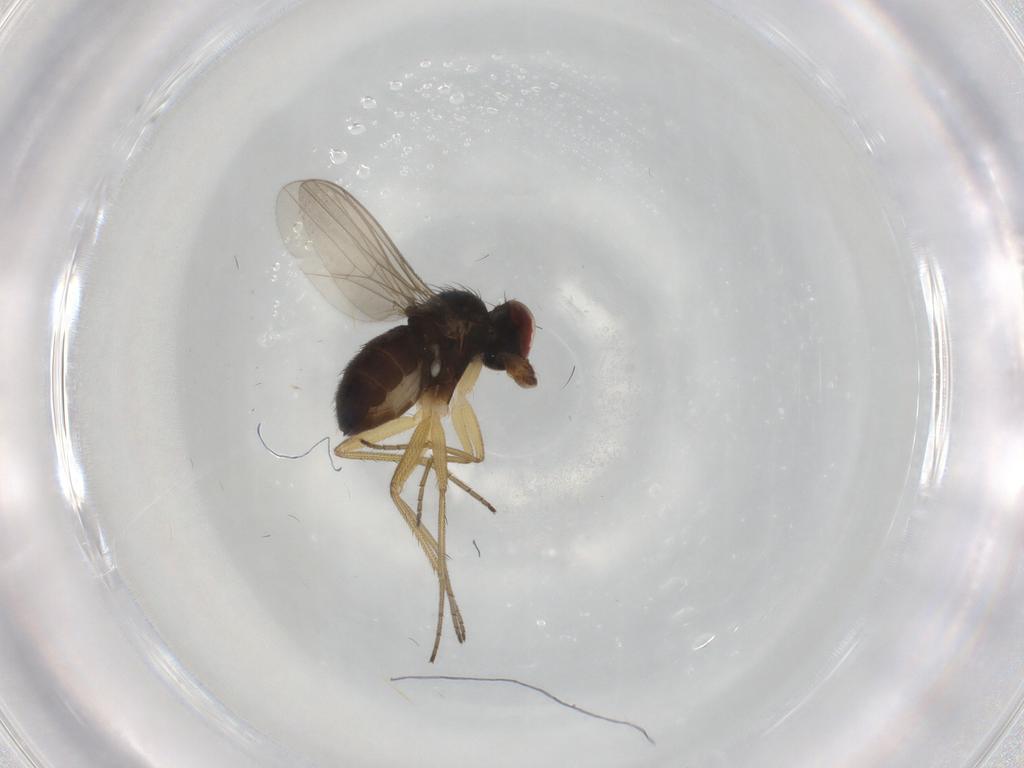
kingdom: Animalia
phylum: Arthropoda
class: Insecta
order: Diptera
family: Dolichopodidae
